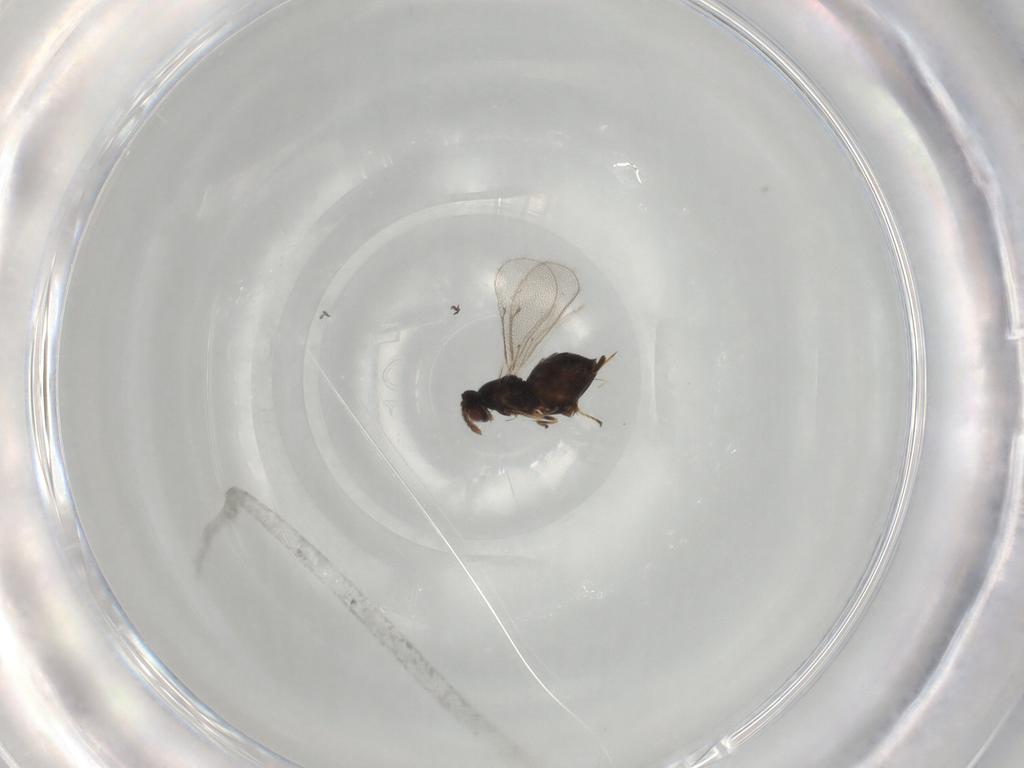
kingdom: Animalia
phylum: Arthropoda
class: Insecta
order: Hymenoptera
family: Eulophidae
